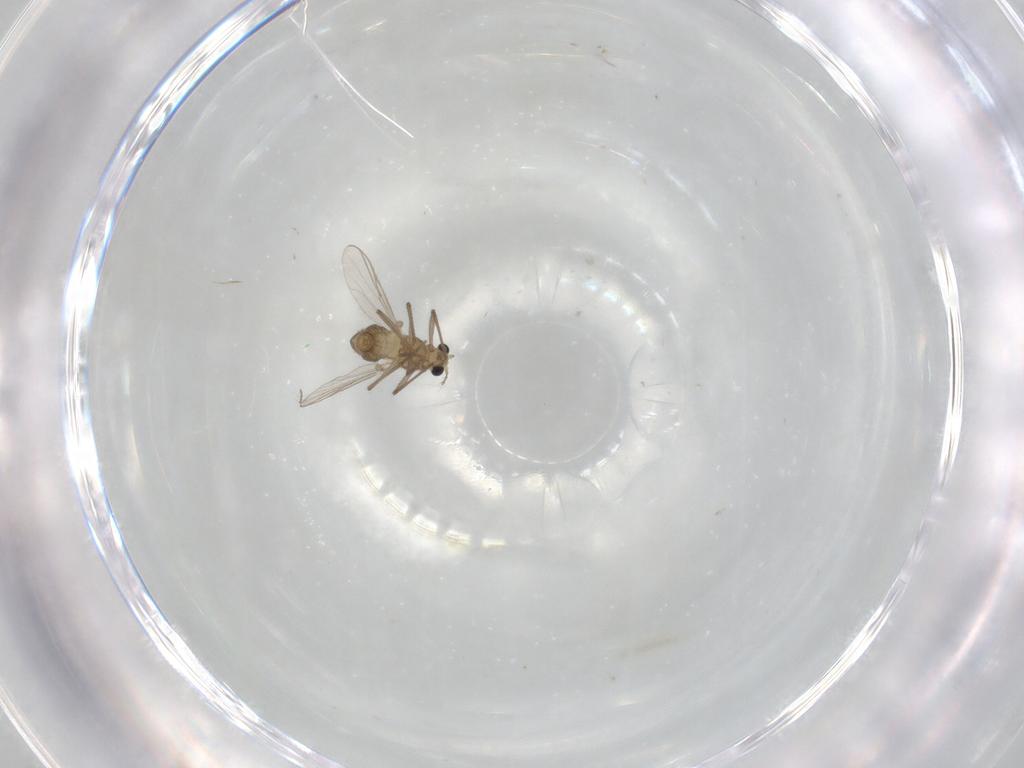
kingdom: Animalia
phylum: Arthropoda
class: Insecta
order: Diptera
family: Chironomidae
